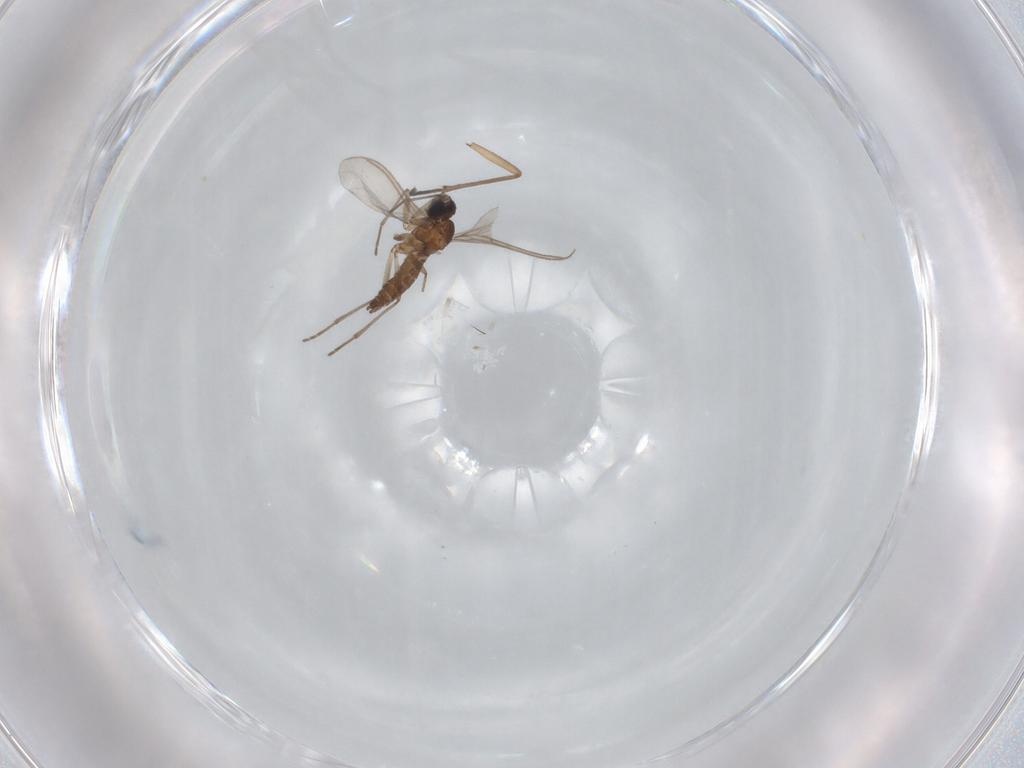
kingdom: Animalia
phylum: Arthropoda
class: Insecta
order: Diptera
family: Sciaridae
